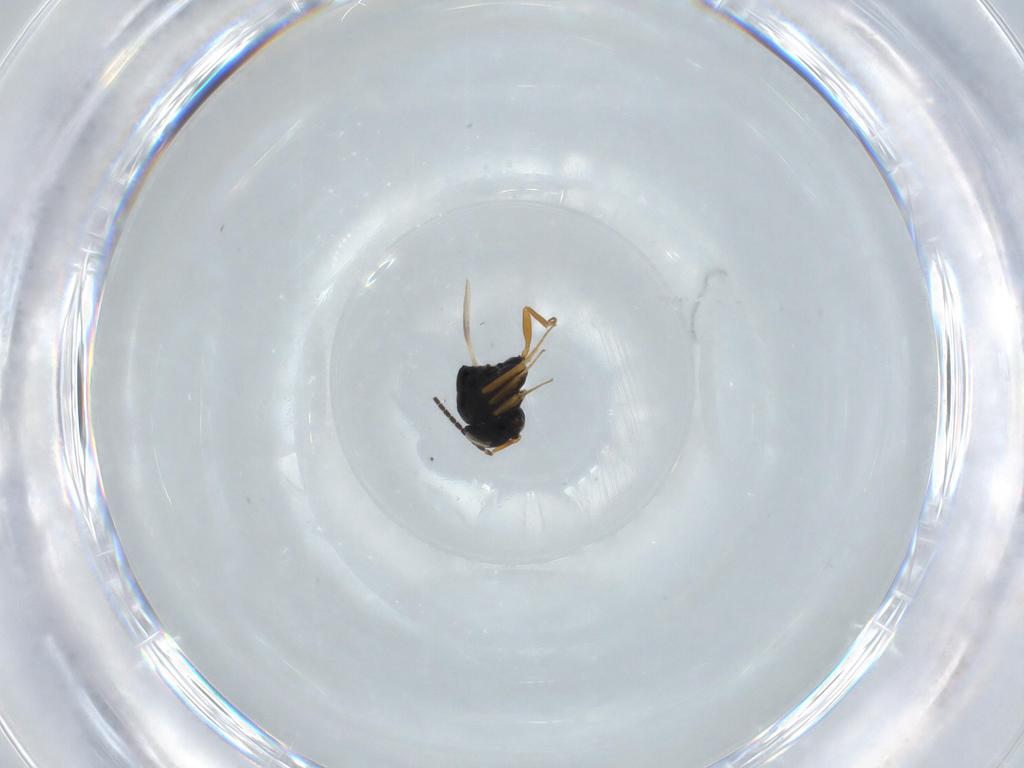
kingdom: Animalia
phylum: Arthropoda
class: Insecta
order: Hymenoptera
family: Scelionidae
